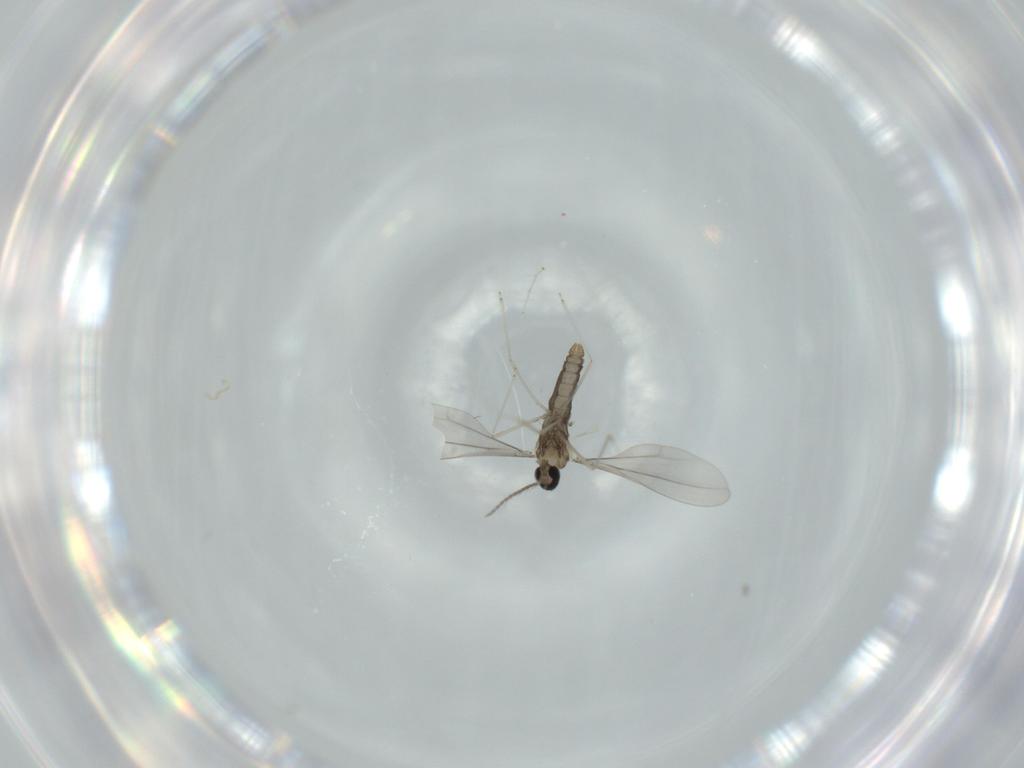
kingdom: Animalia
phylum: Arthropoda
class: Insecta
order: Diptera
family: Cecidomyiidae
